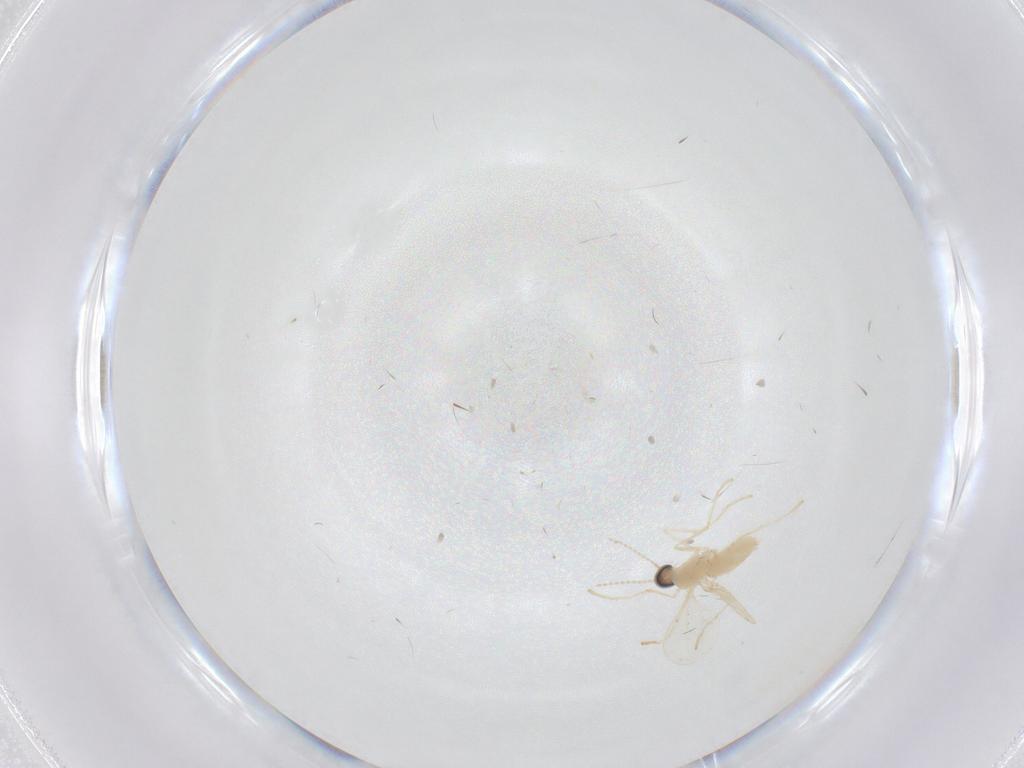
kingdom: Animalia
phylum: Arthropoda
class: Insecta
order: Diptera
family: Cecidomyiidae
